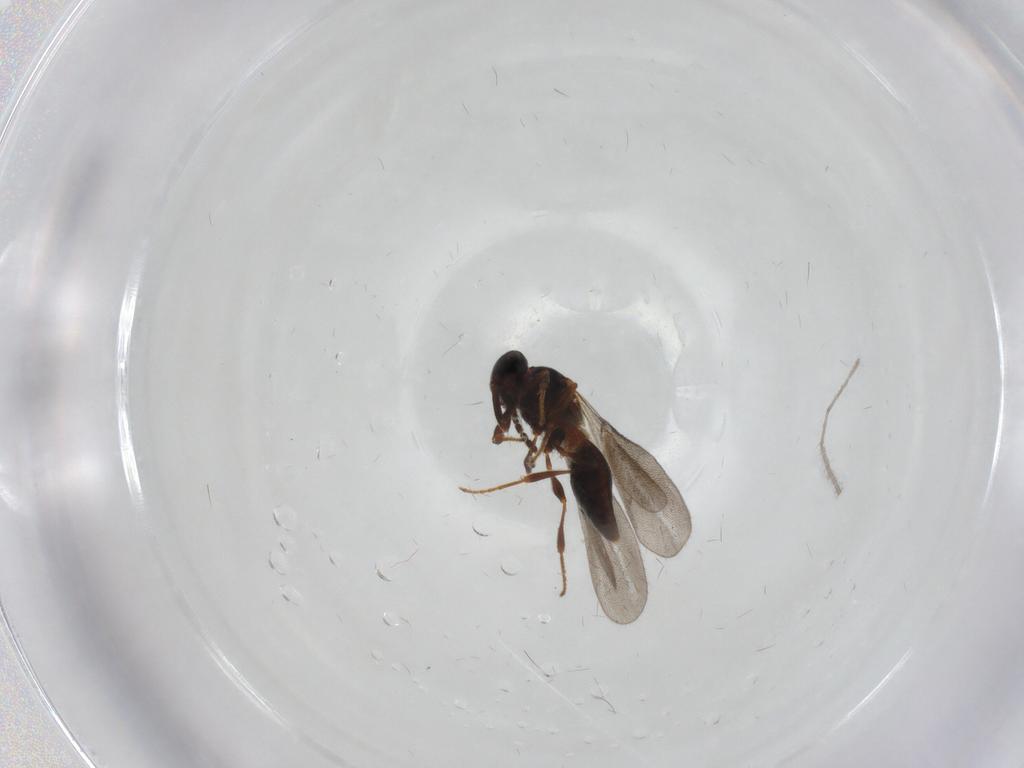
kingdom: Animalia
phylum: Arthropoda
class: Insecta
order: Hymenoptera
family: Platygastridae
